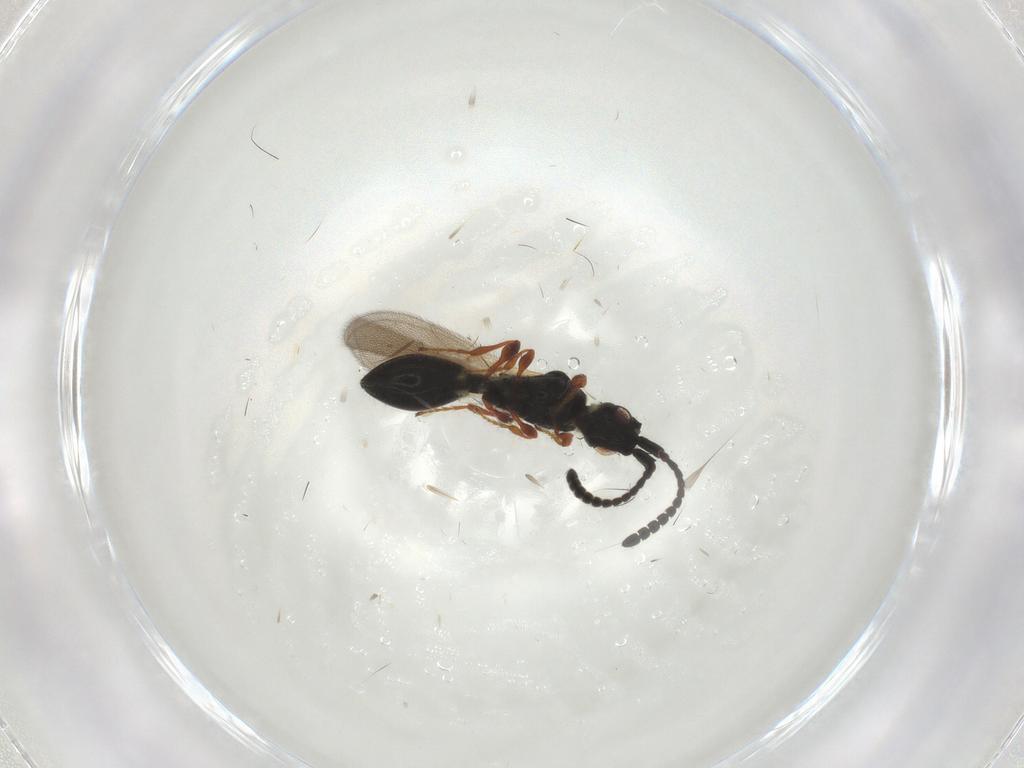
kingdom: Animalia
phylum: Arthropoda
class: Insecta
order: Hymenoptera
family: Diapriidae
